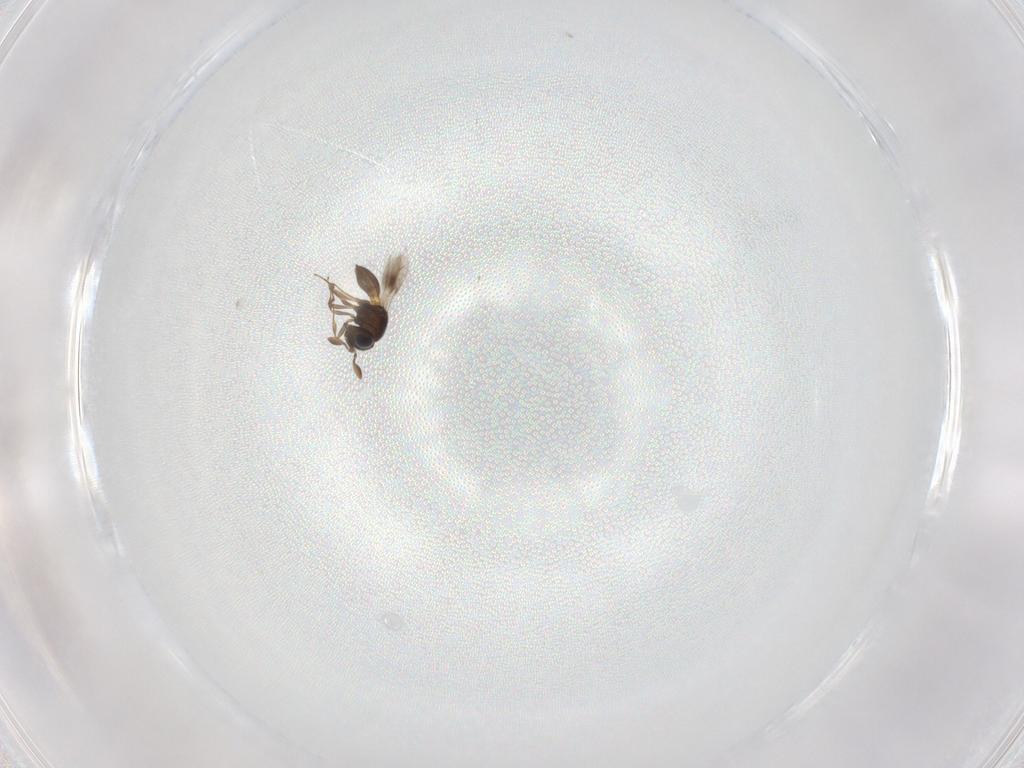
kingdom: Animalia
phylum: Arthropoda
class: Insecta
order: Hymenoptera
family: Scelionidae
